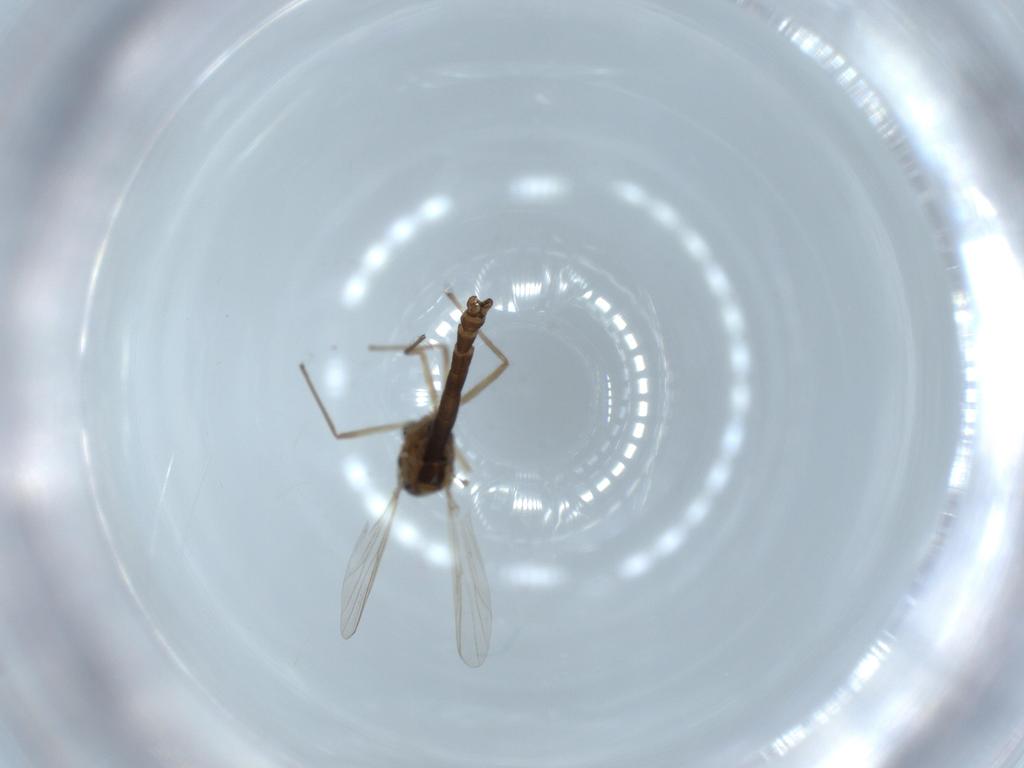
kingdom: Animalia
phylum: Arthropoda
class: Insecta
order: Diptera
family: Chironomidae
